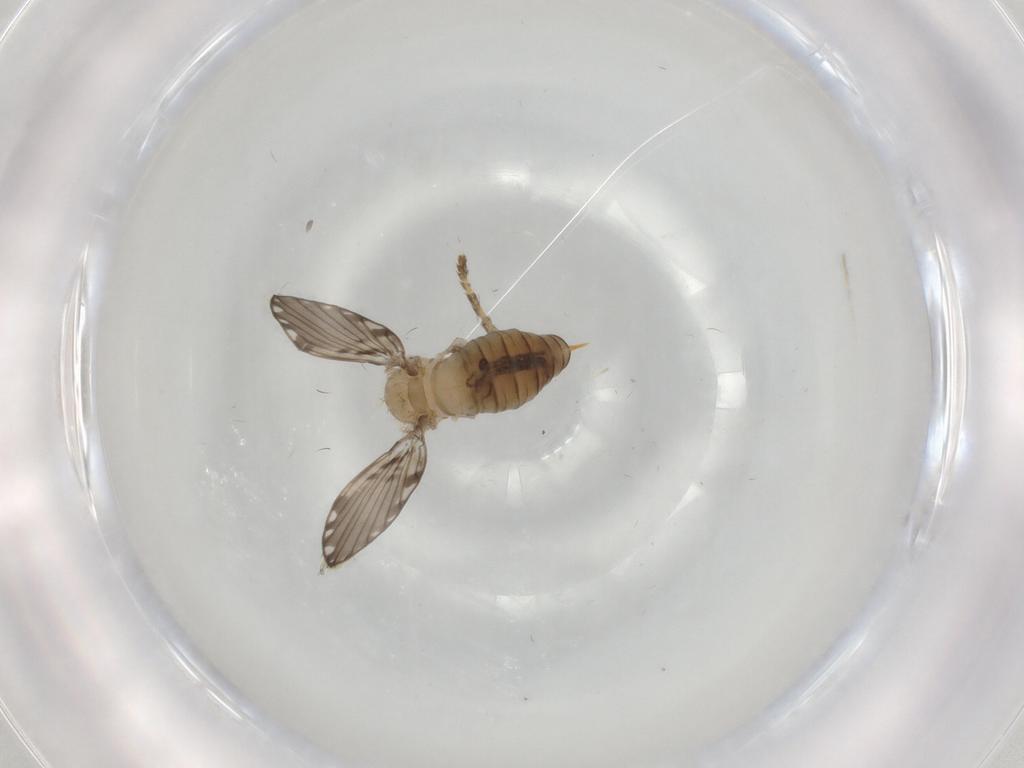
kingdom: Animalia
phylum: Arthropoda
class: Insecta
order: Diptera
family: Psychodidae
